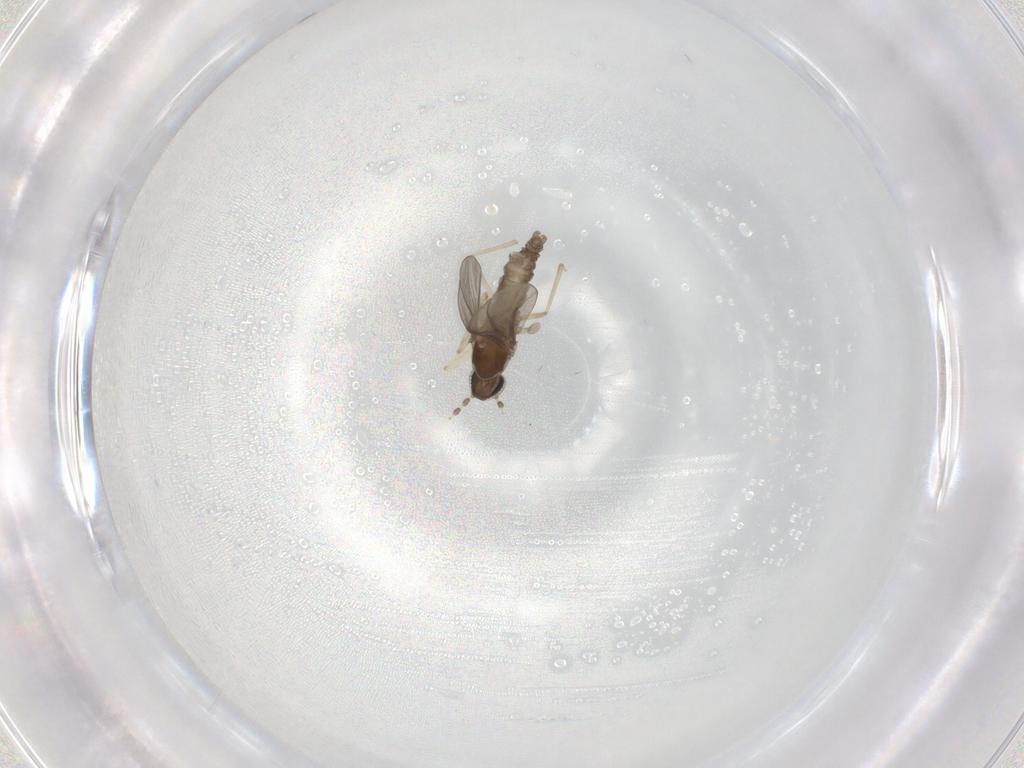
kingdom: Animalia
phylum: Arthropoda
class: Insecta
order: Diptera
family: Cecidomyiidae
